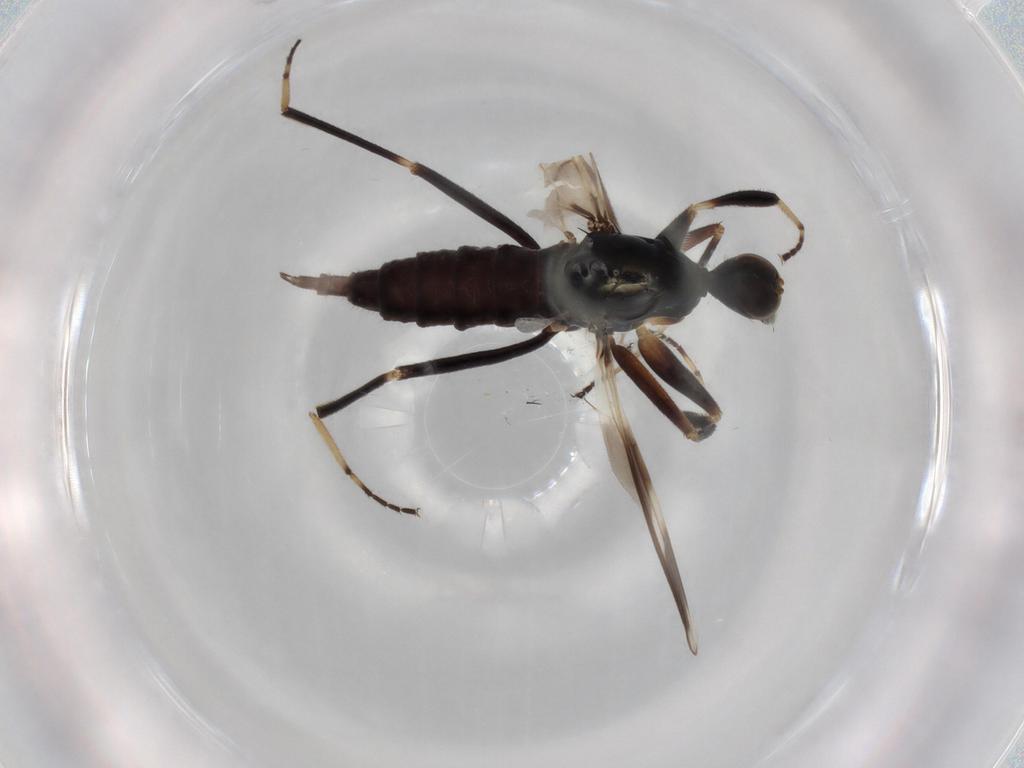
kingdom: Animalia
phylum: Arthropoda
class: Insecta
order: Diptera
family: Hybotidae
